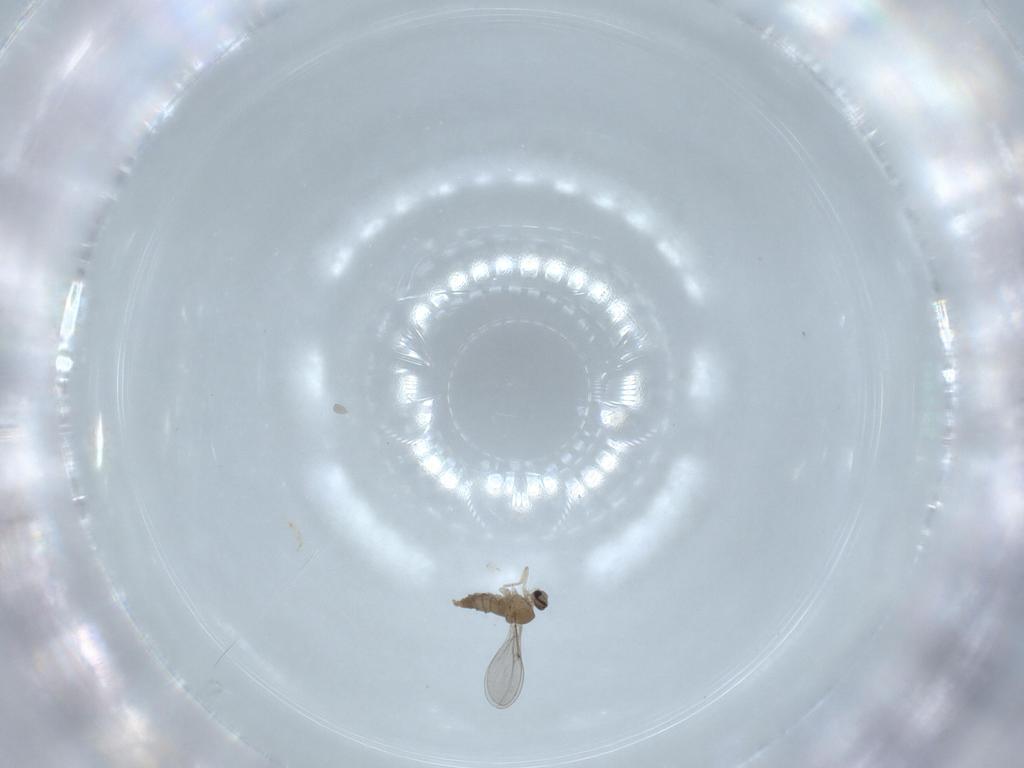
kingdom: Animalia
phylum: Arthropoda
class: Insecta
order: Diptera
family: Cecidomyiidae
